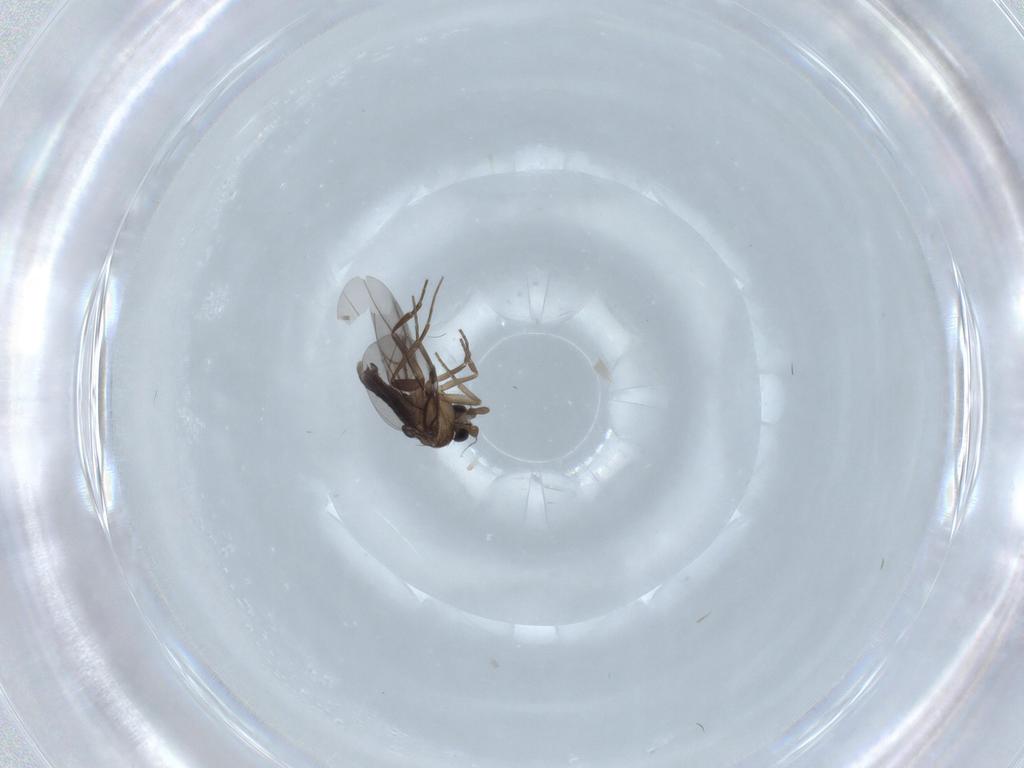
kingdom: Animalia
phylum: Arthropoda
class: Insecta
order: Diptera
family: Phoridae
